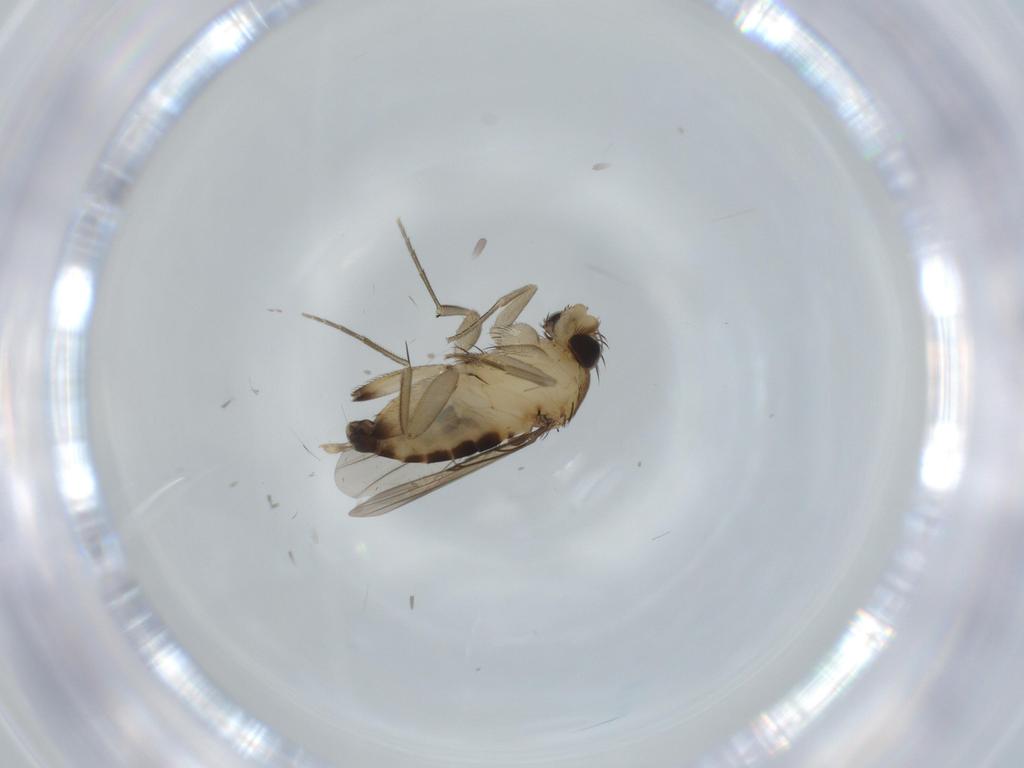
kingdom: Animalia
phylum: Arthropoda
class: Insecta
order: Diptera
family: Phoridae
